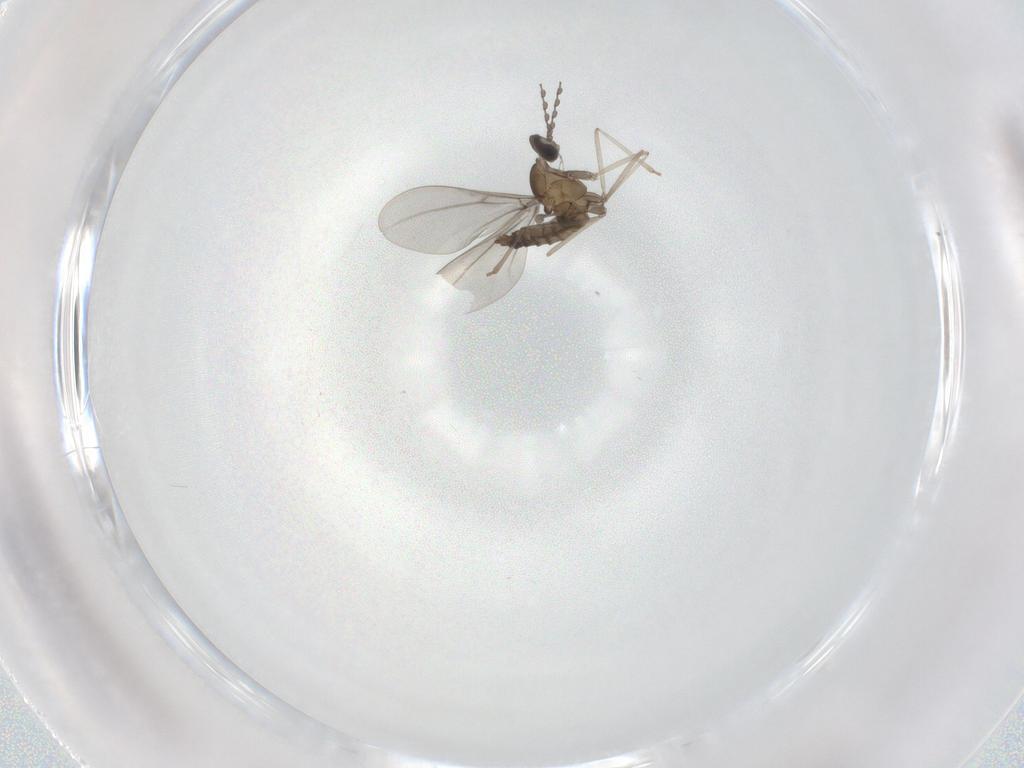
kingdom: Animalia
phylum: Arthropoda
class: Insecta
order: Diptera
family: Cecidomyiidae
